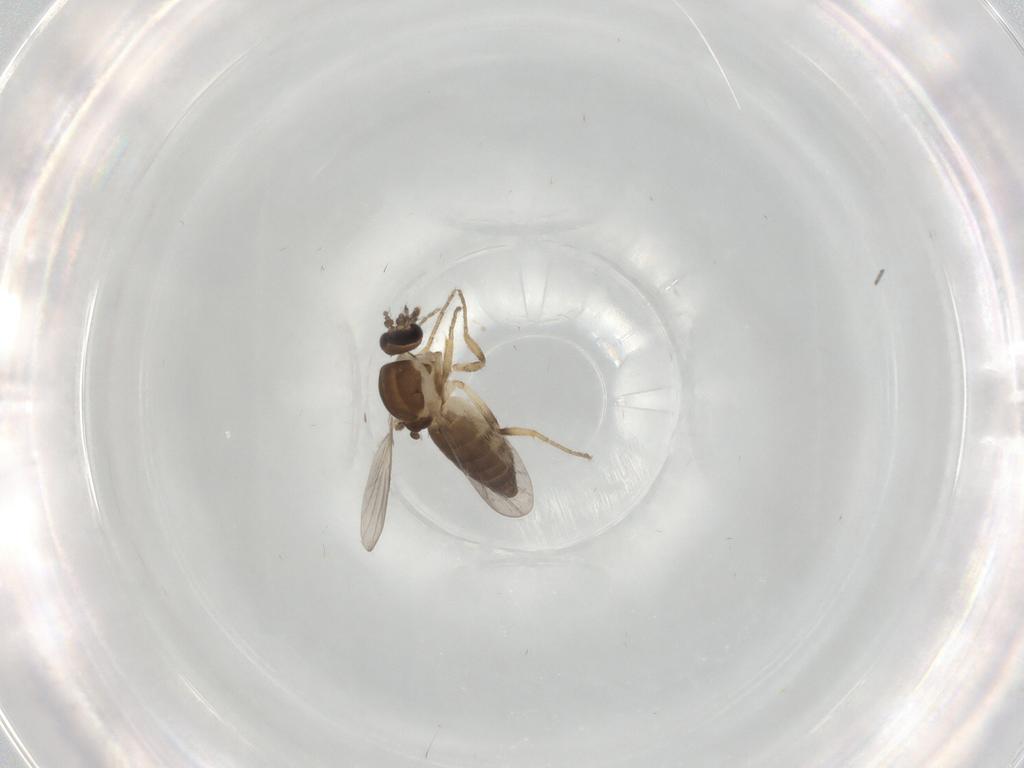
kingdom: Animalia
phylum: Arthropoda
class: Insecta
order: Diptera
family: Ceratopogonidae
